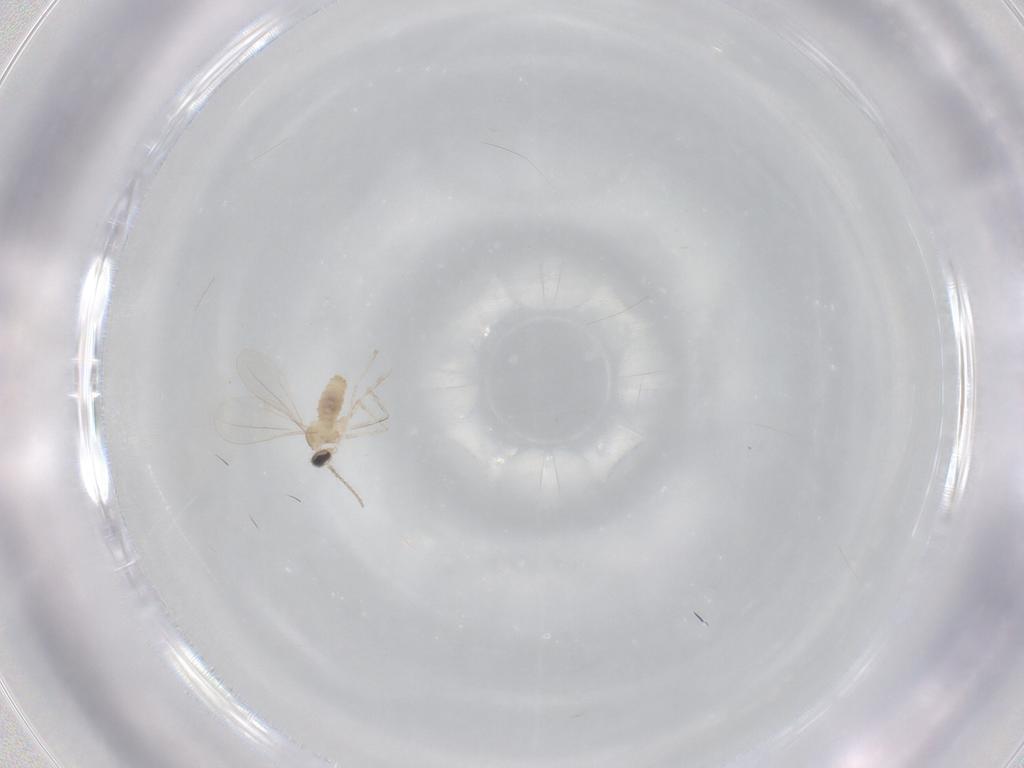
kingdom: Animalia
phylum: Arthropoda
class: Insecta
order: Diptera
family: Cecidomyiidae
